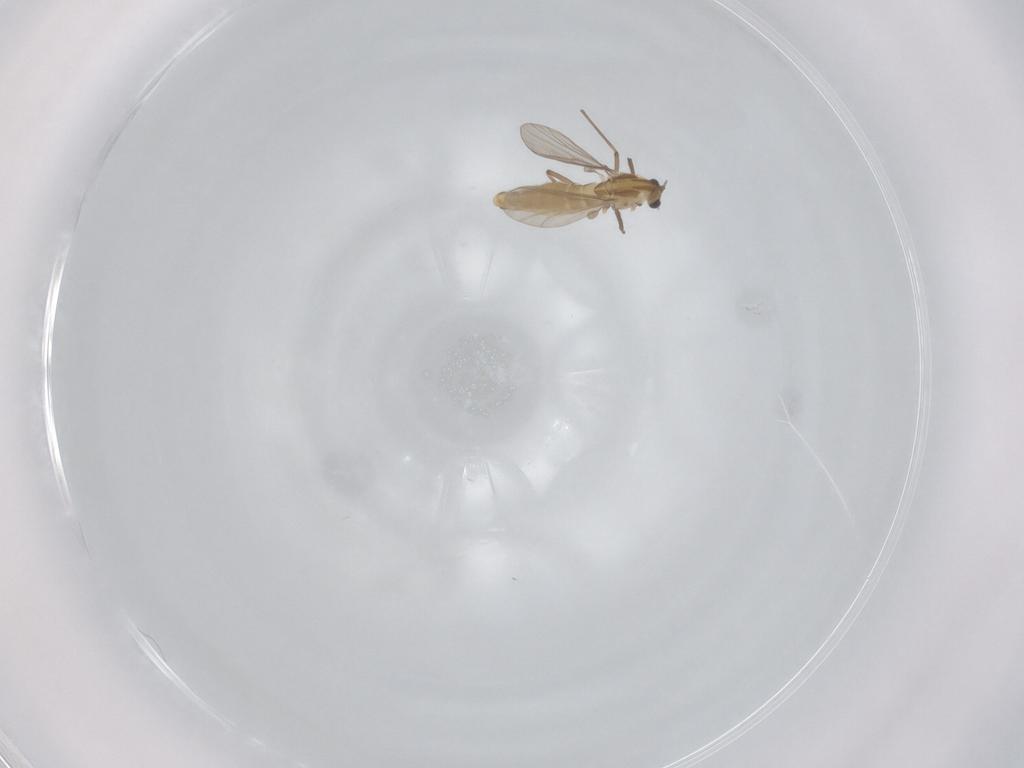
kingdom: Animalia
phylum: Arthropoda
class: Insecta
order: Diptera
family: Chironomidae
